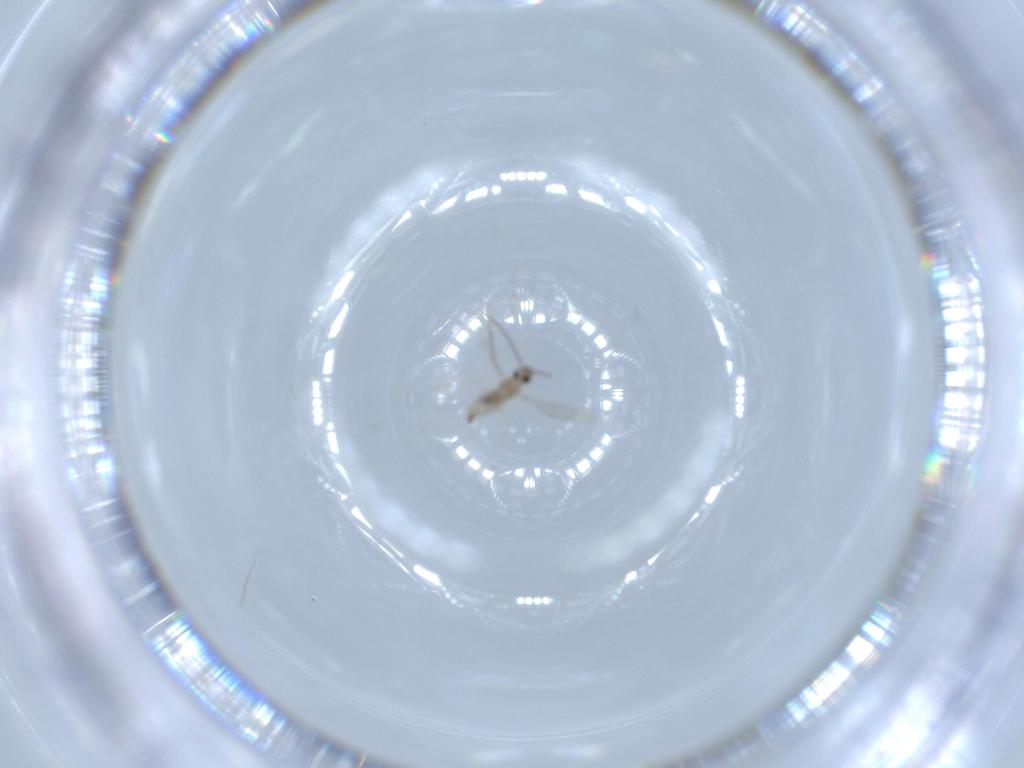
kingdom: Animalia
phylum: Arthropoda
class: Insecta
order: Diptera
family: Cecidomyiidae
